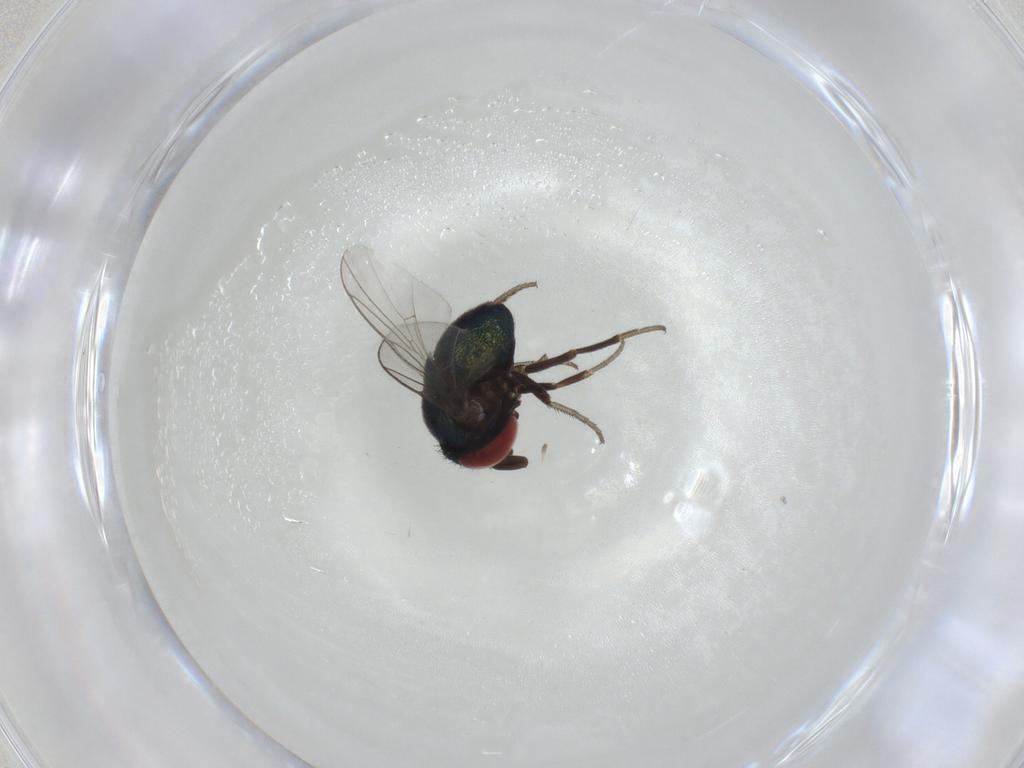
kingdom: Animalia
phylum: Arthropoda
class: Insecta
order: Diptera
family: Cryptochetidae
